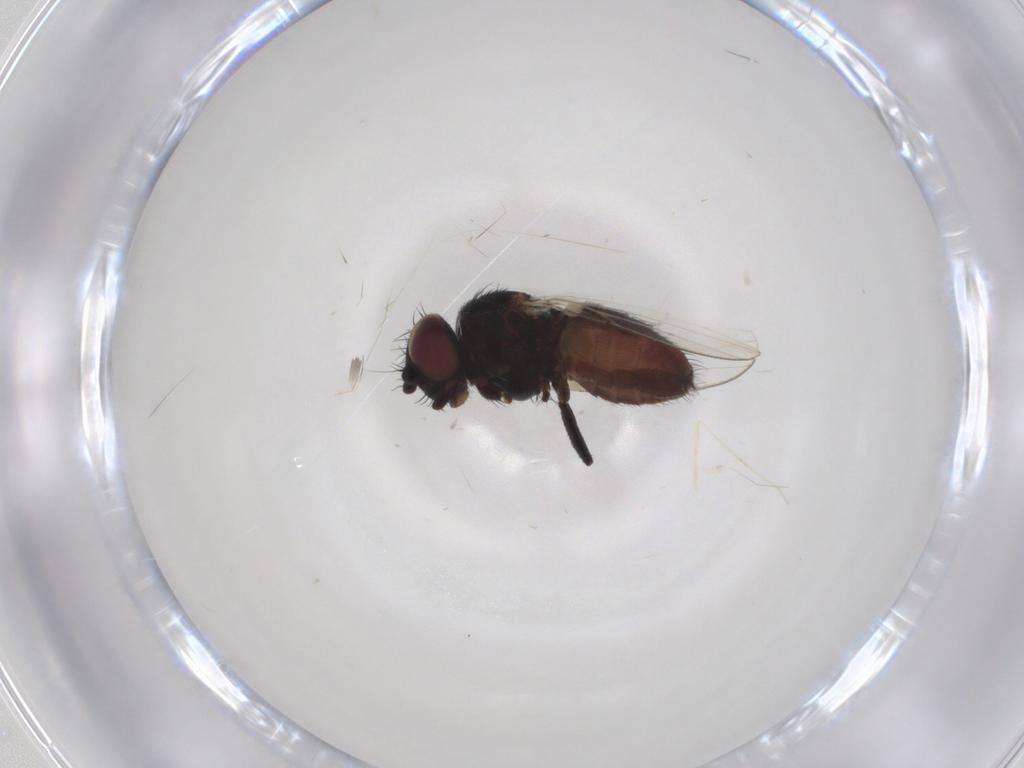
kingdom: Animalia
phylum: Arthropoda
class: Insecta
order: Diptera
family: Milichiidae
